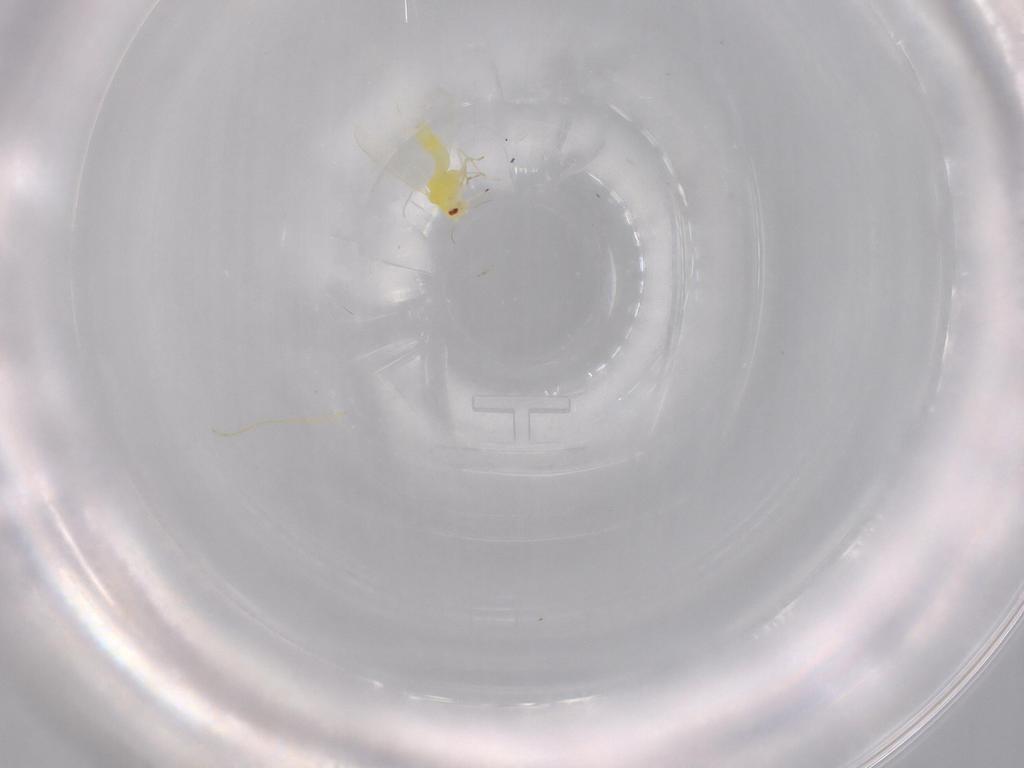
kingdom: Animalia
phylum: Arthropoda
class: Insecta
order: Hemiptera
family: Aleyrodidae
